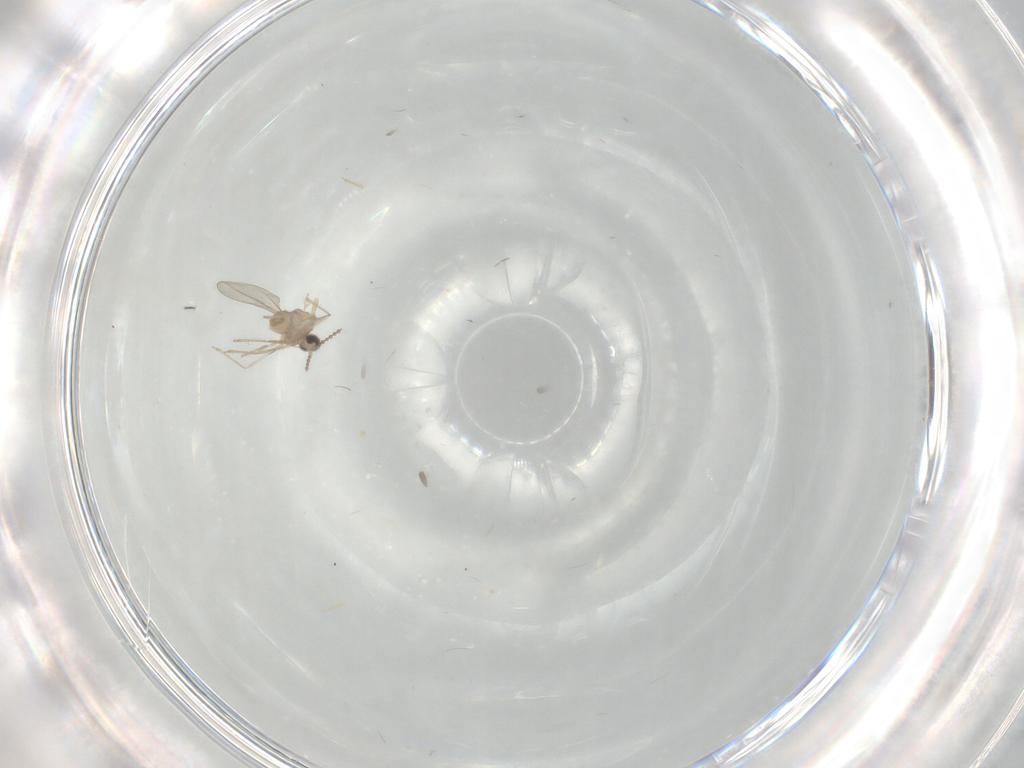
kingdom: Animalia
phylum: Arthropoda
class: Insecta
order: Diptera
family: Cecidomyiidae
